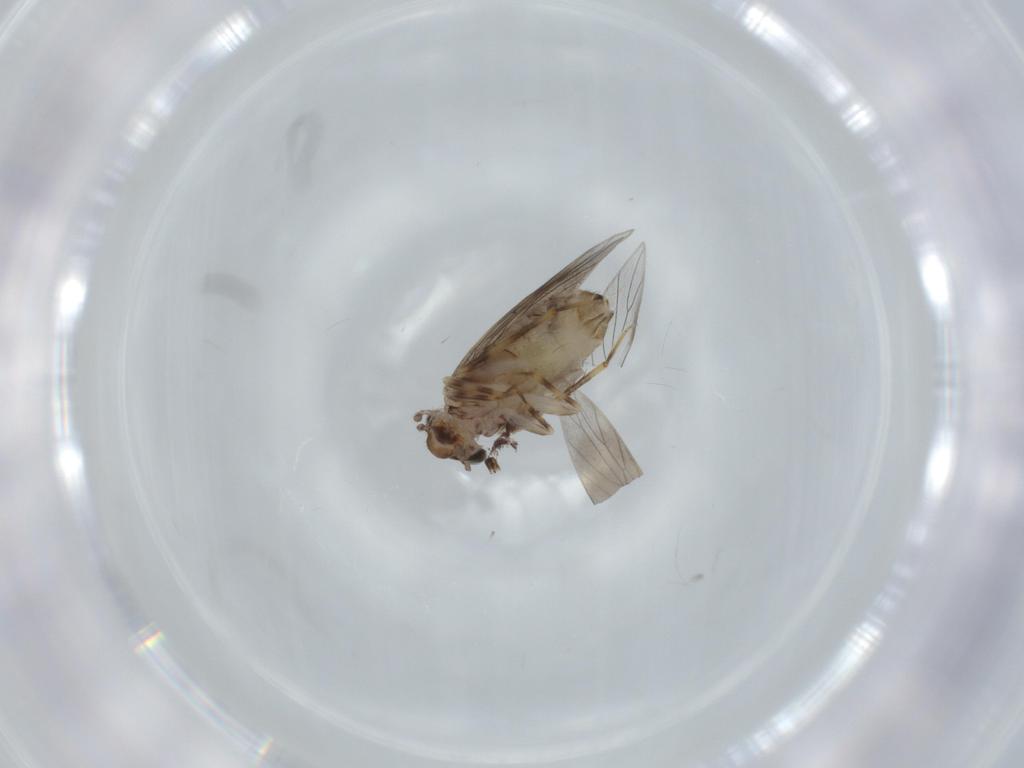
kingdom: Animalia
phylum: Arthropoda
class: Insecta
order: Psocodea
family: Lepidopsocidae
